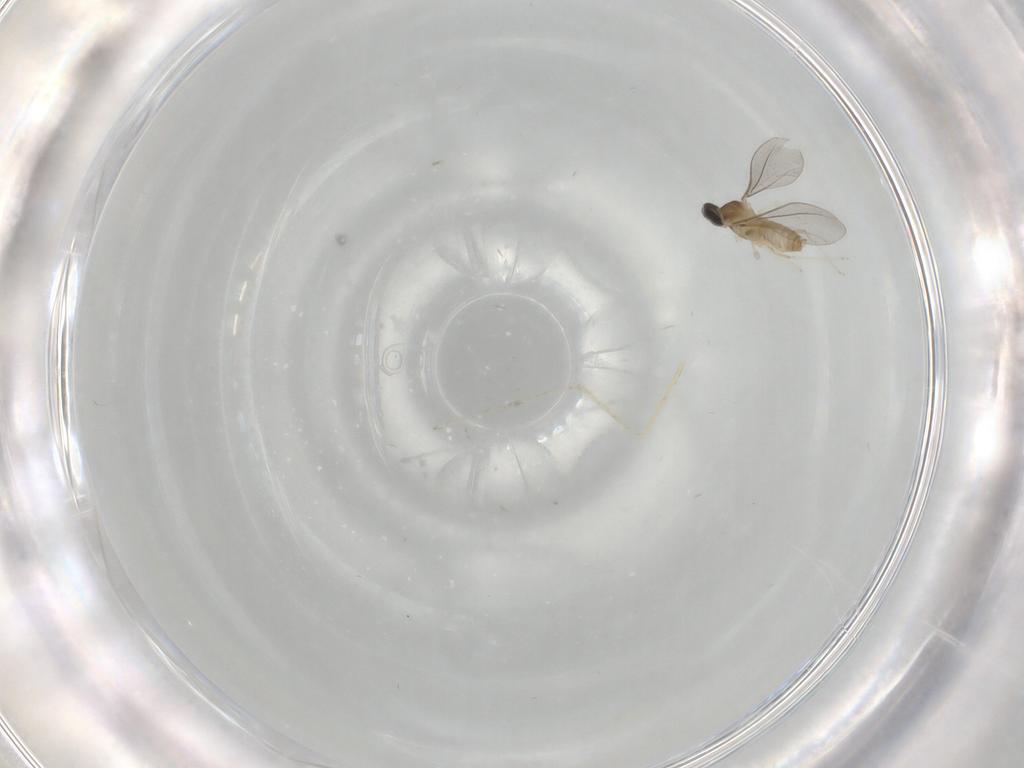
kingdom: Animalia
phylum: Arthropoda
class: Insecta
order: Diptera
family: Cecidomyiidae
